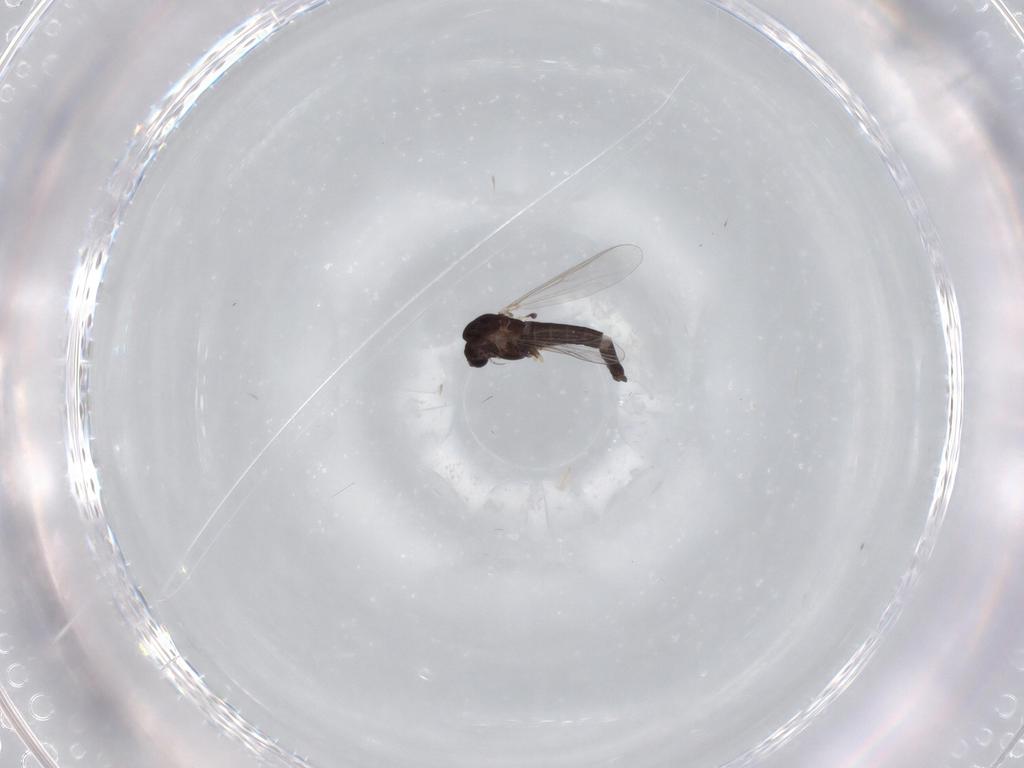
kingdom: Animalia
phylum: Arthropoda
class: Insecta
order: Diptera
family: Chironomidae
